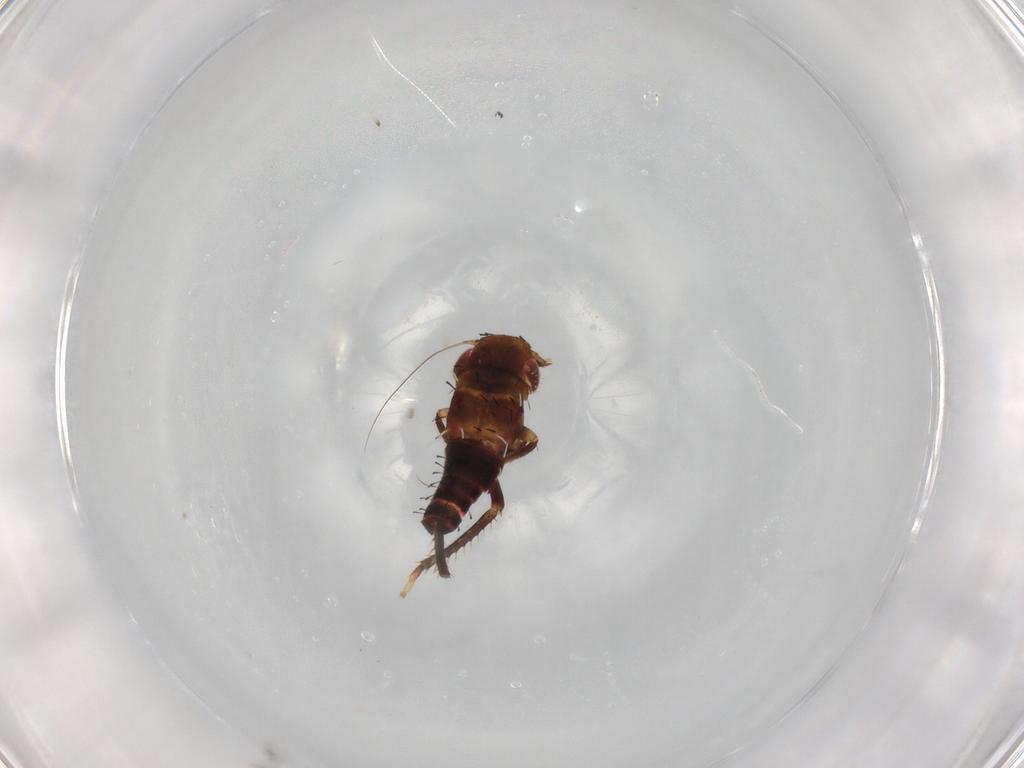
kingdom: Animalia
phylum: Arthropoda
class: Insecta
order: Hemiptera
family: Cicadellidae
